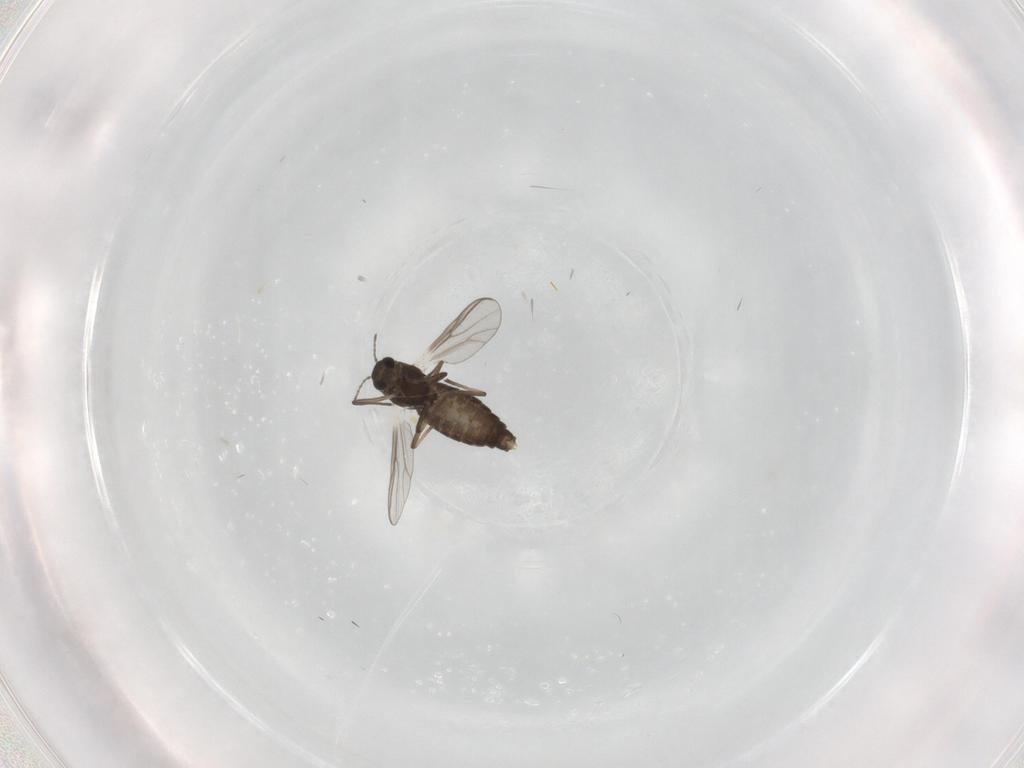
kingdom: Animalia
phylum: Arthropoda
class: Insecta
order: Diptera
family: Chironomidae
